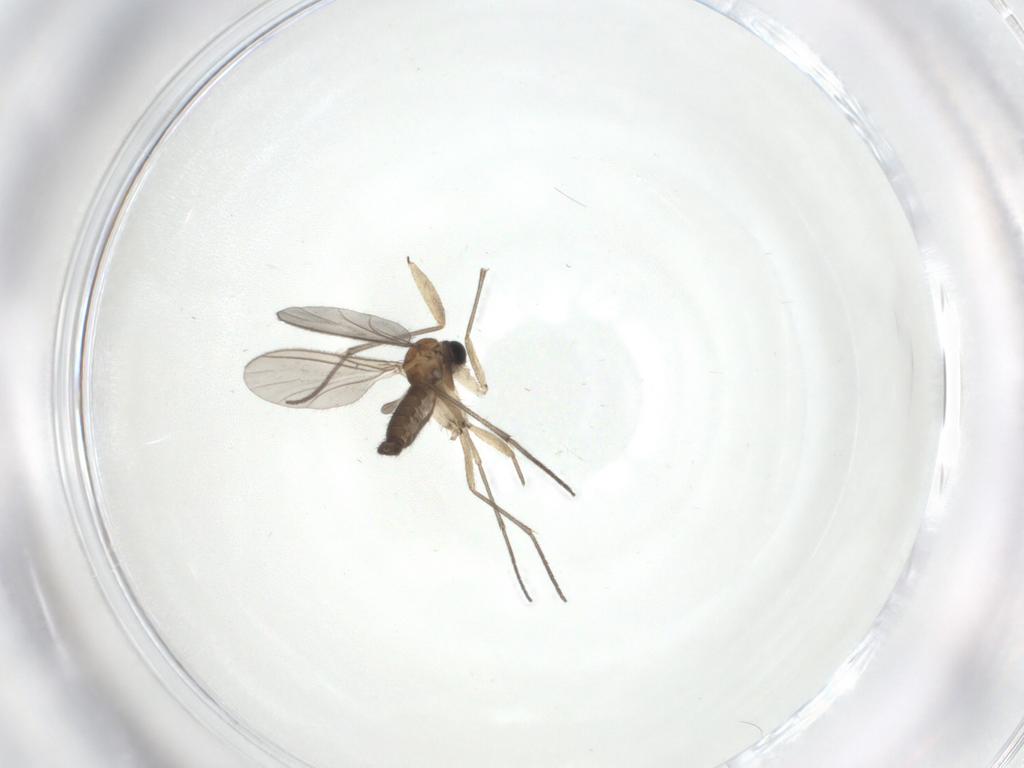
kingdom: Animalia
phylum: Arthropoda
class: Insecta
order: Diptera
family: Sciaridae
